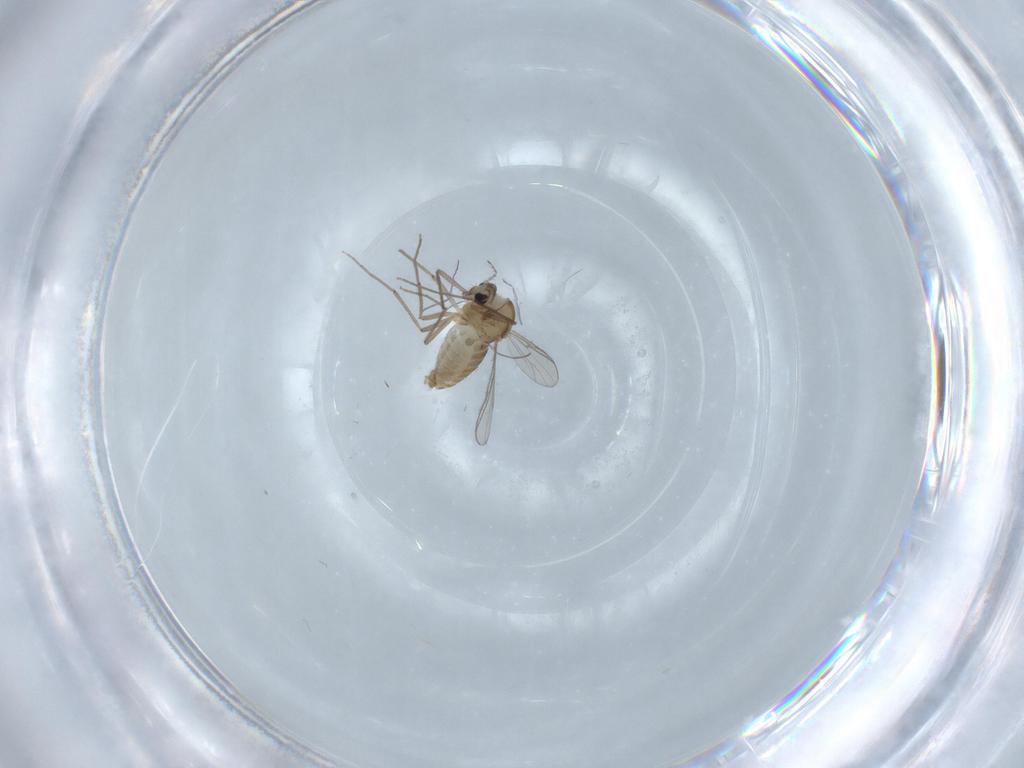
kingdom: Animalia
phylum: Arthropoda
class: Insecta
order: Diptera
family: Chironomidae
